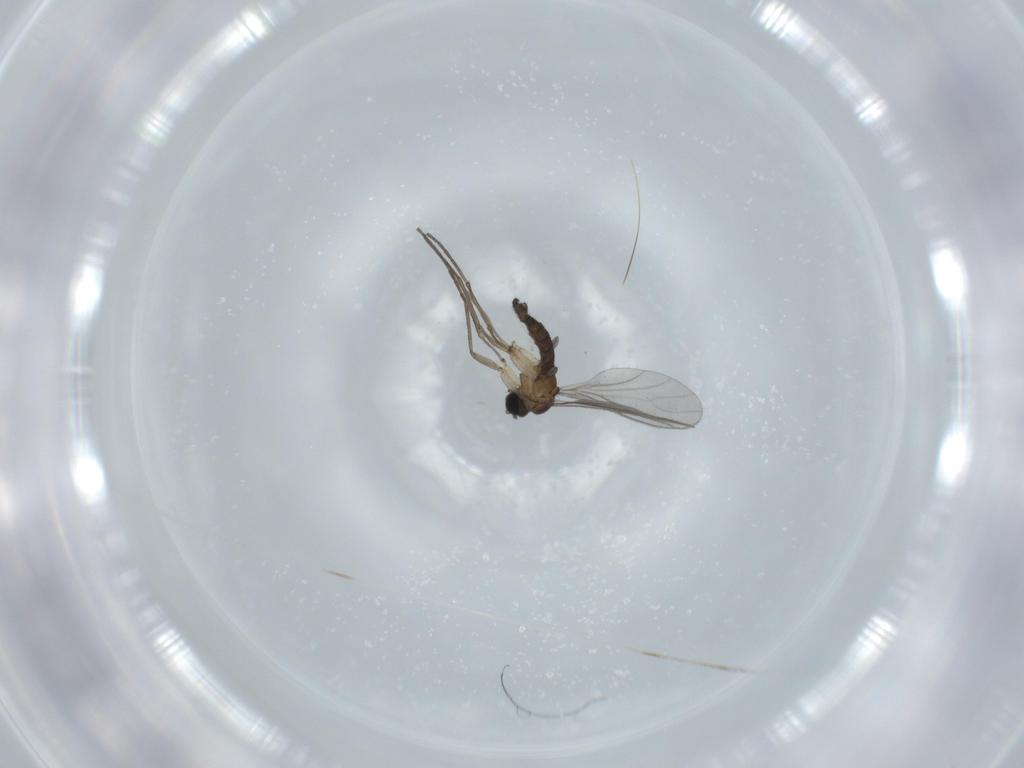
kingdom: Animalia
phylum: Arthropoda
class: Insecta
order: Diptera
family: Sciaridae
